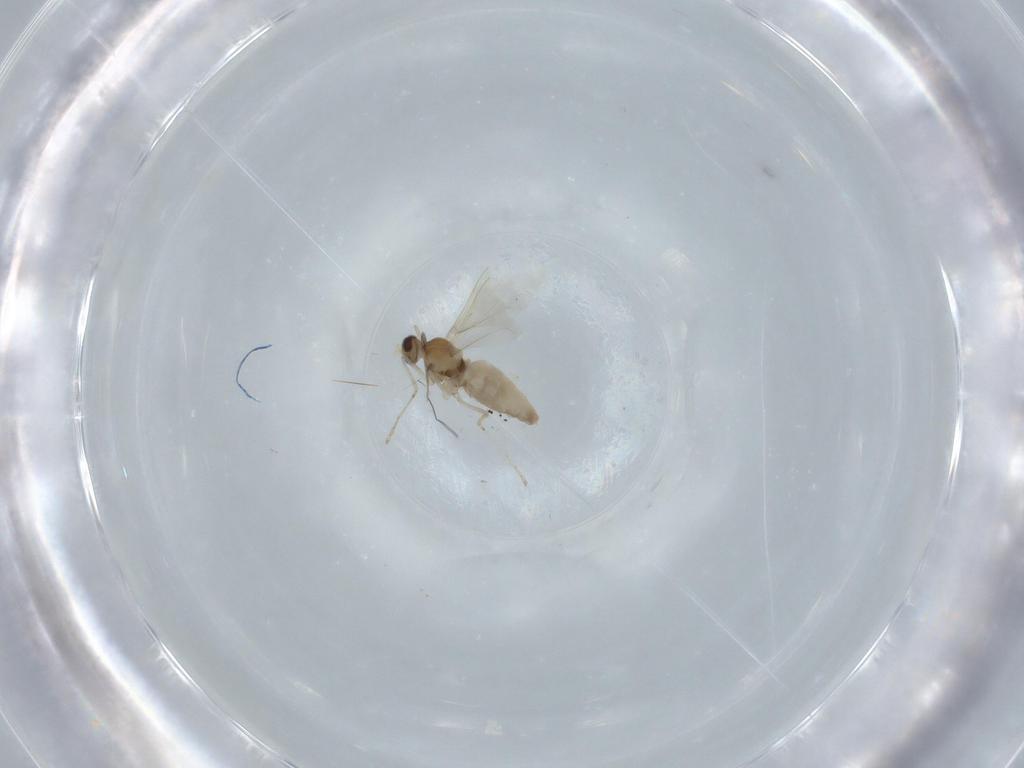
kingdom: Animalia
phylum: Arthropoda
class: Insecta
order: Diptera
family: Cecidomyiidae
